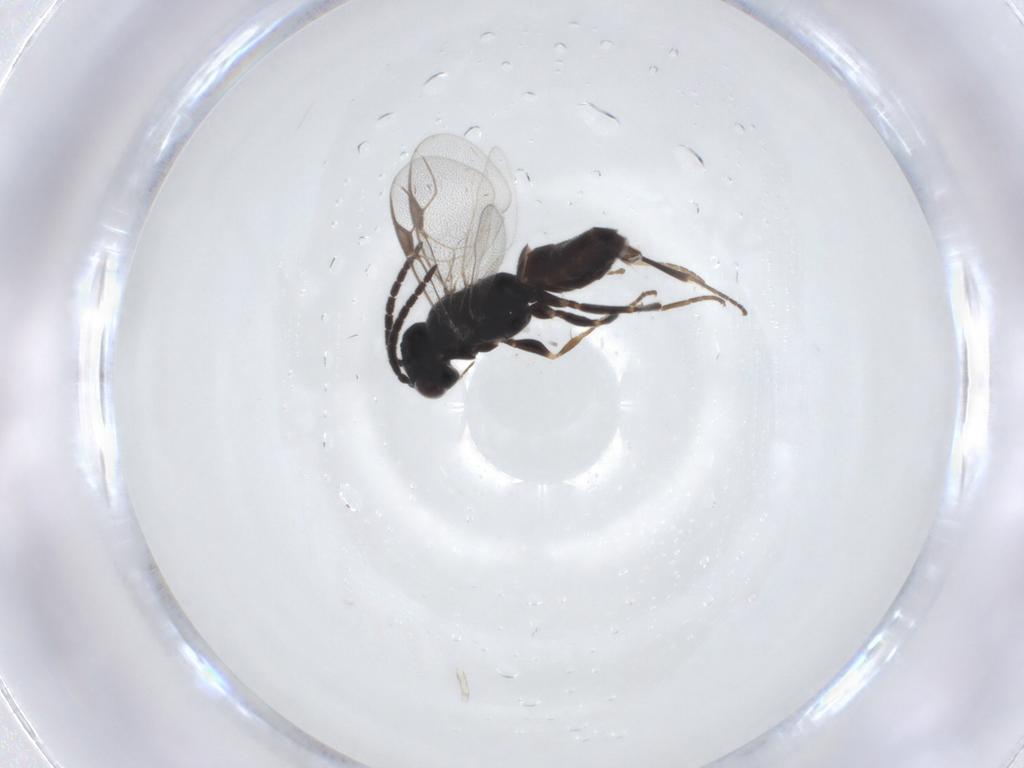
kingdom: Animalia
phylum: Arthropoda
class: Insecta
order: Hymenoptera
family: Dryinidae
